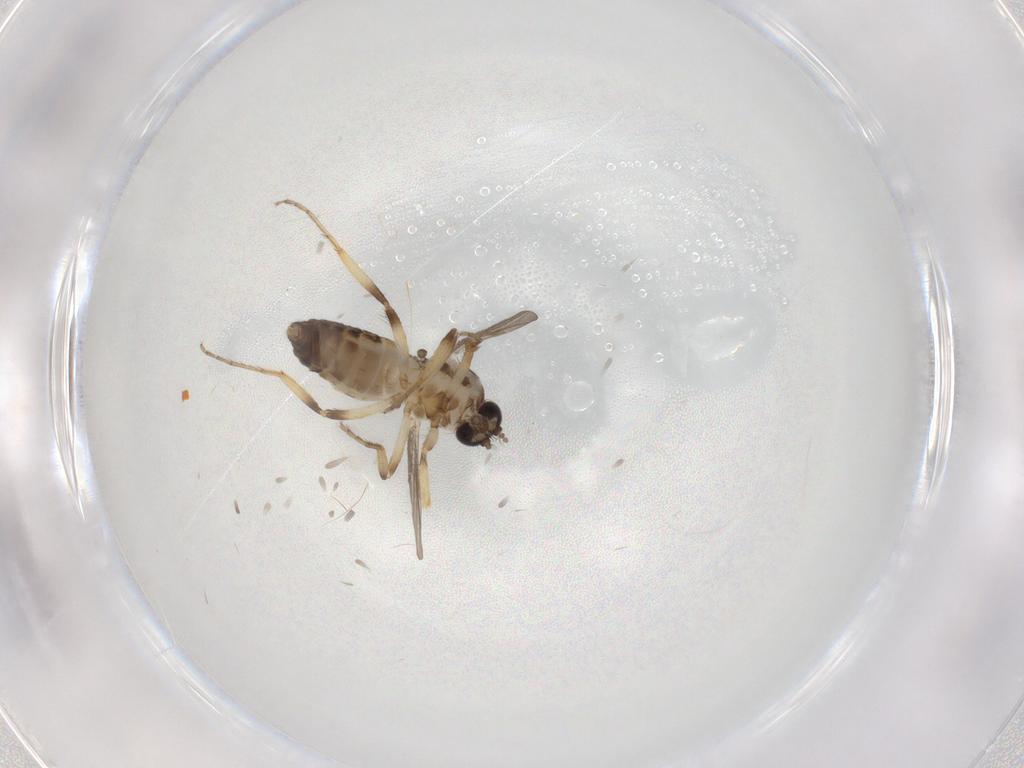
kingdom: Animalia
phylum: Arthropoda
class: Insecta
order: Diptera
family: Ceratopogonidae
